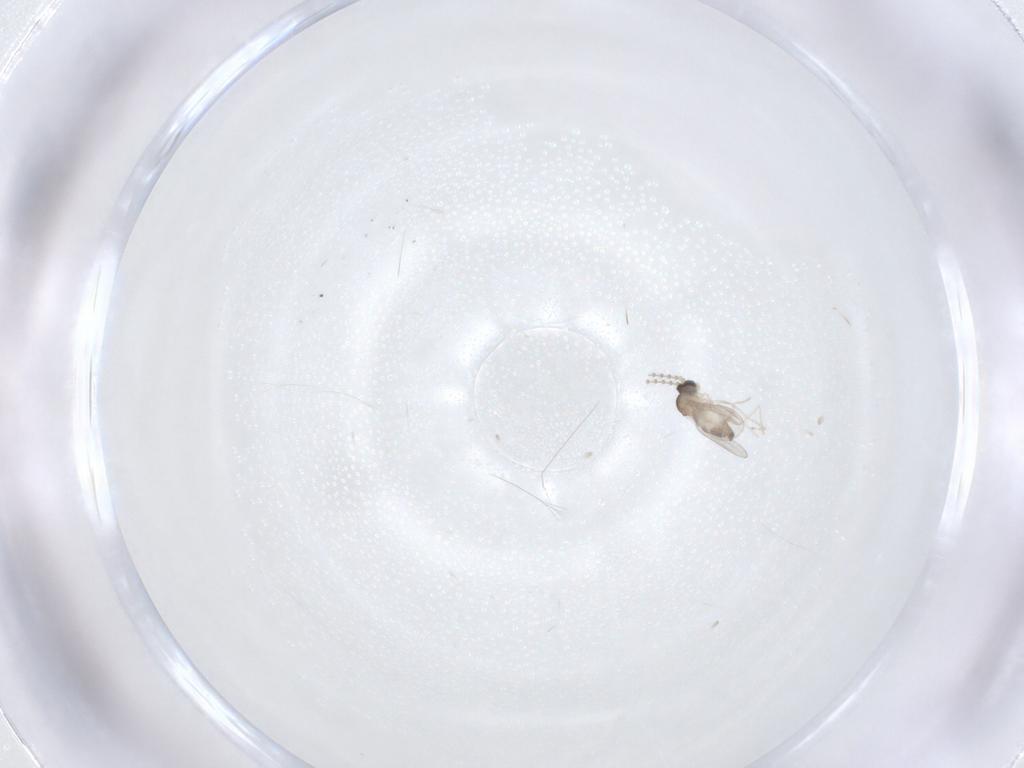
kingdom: Animalia
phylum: Arthropoda
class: Insecta
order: Diptera
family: Cecidomyiidae
